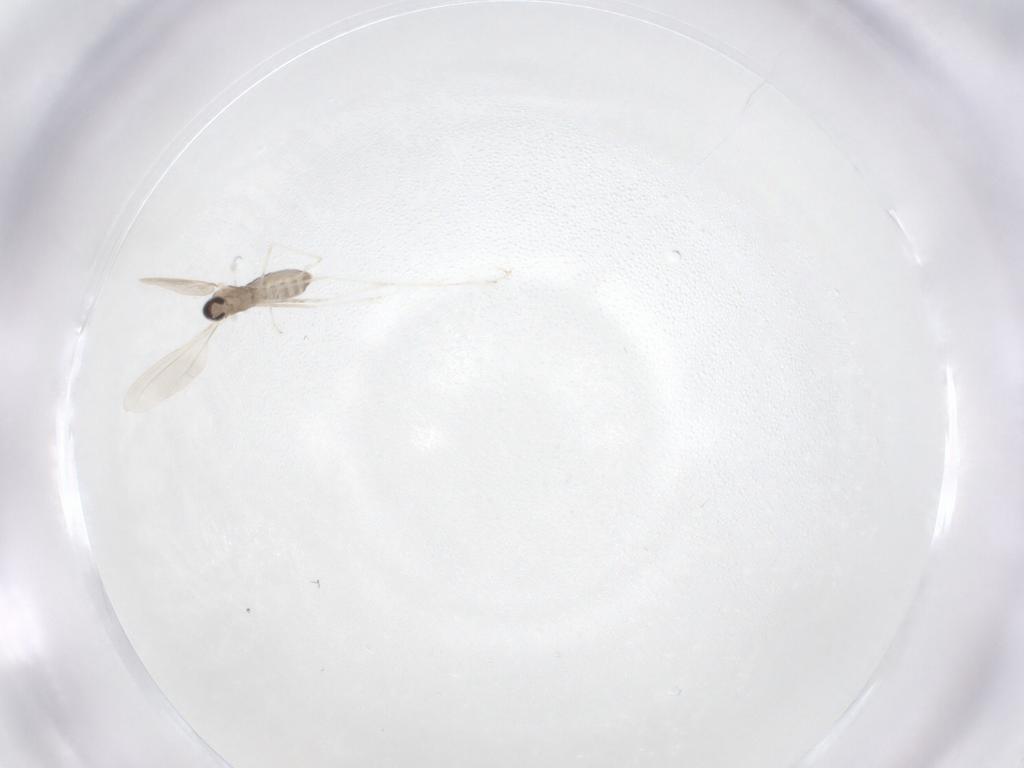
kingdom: Animalia
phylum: Arthropoda
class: Insecta
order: Diptera
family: Cecidomyiidae
